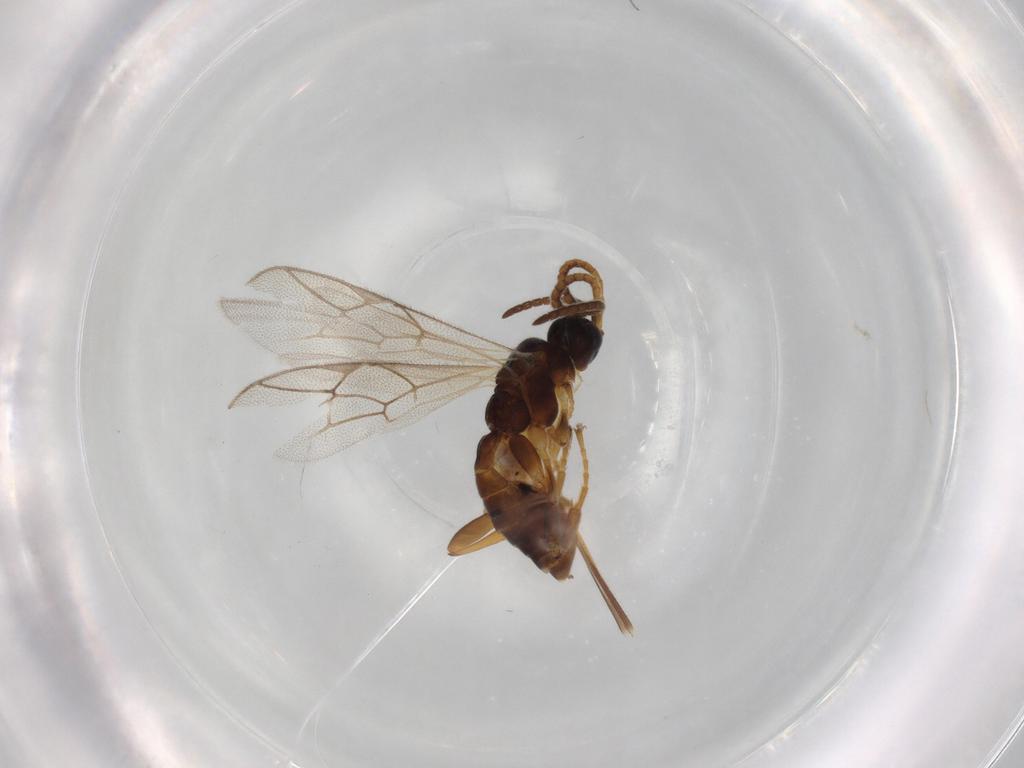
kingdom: Animalia
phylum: Arthropoda
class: Insecta
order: Hymenoptera
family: Ichneumonidae
